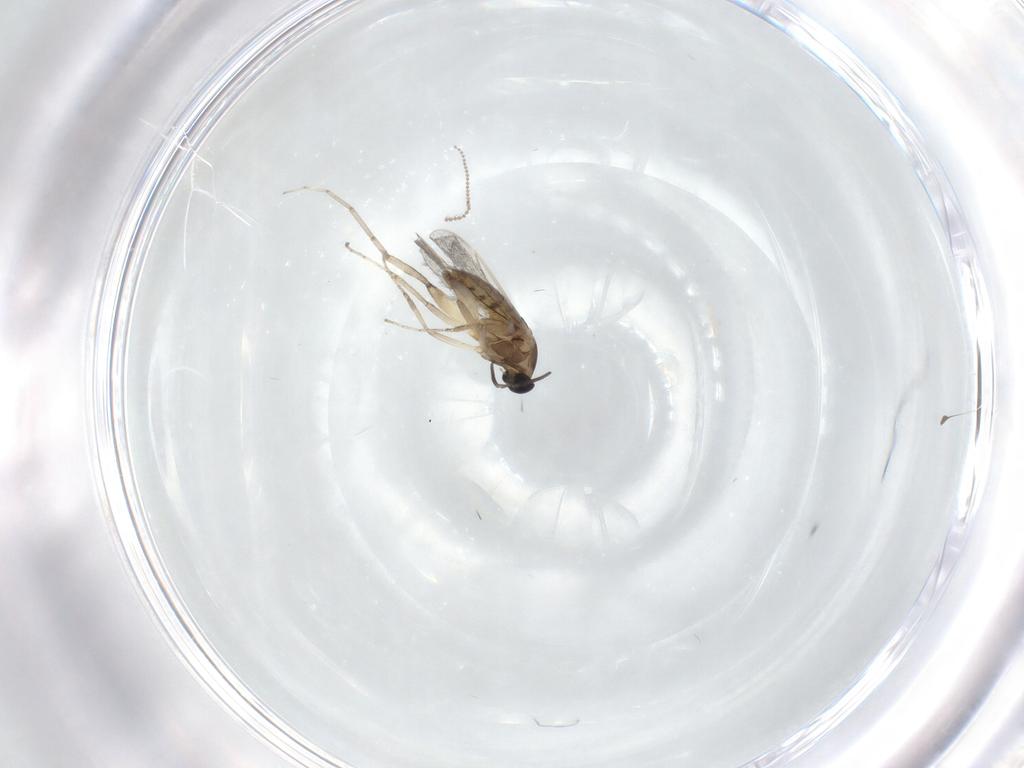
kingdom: Animalia
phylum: Arthropoda
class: Insecta
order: Diptera
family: Cecidomyiidae
